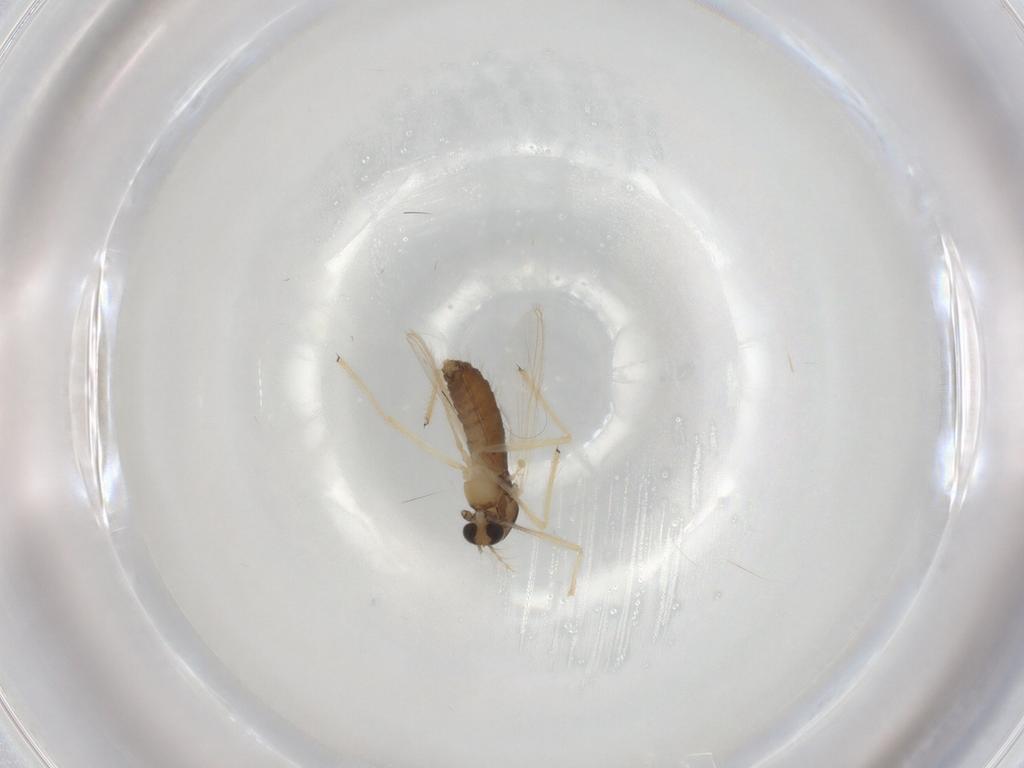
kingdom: Animalia
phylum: Arthropoda
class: Insecta
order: Diptera
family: Chironomidae
